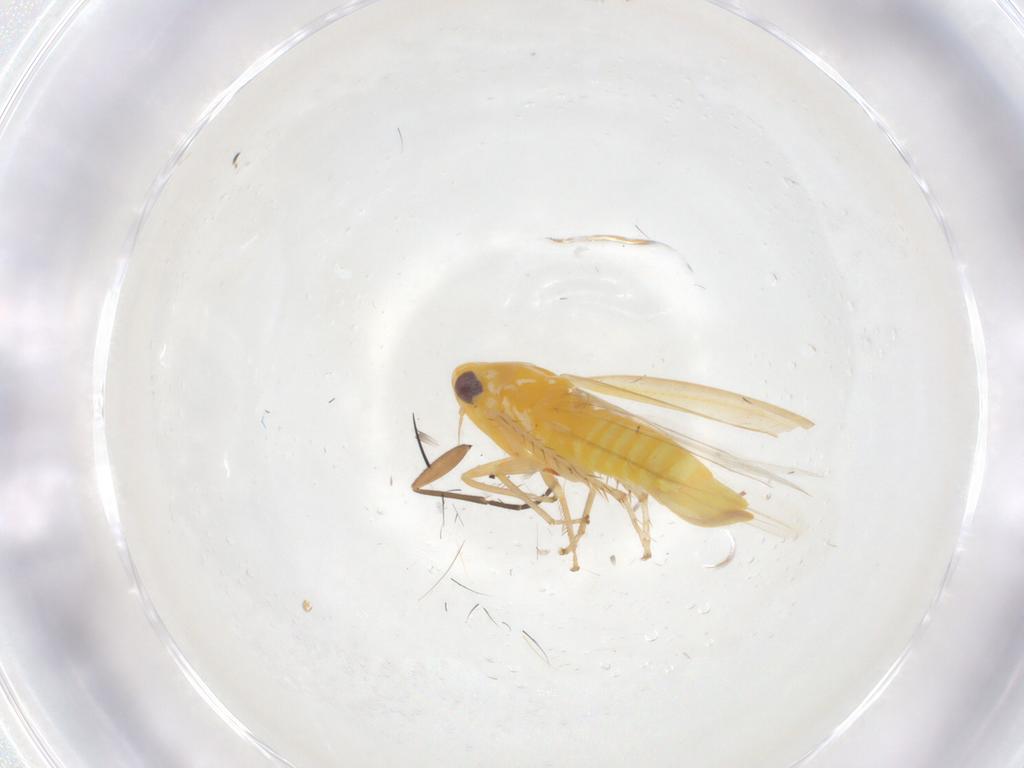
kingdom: Animalia
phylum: Arthropoda
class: Insecta
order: Hemiptera
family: Cicadellidae
